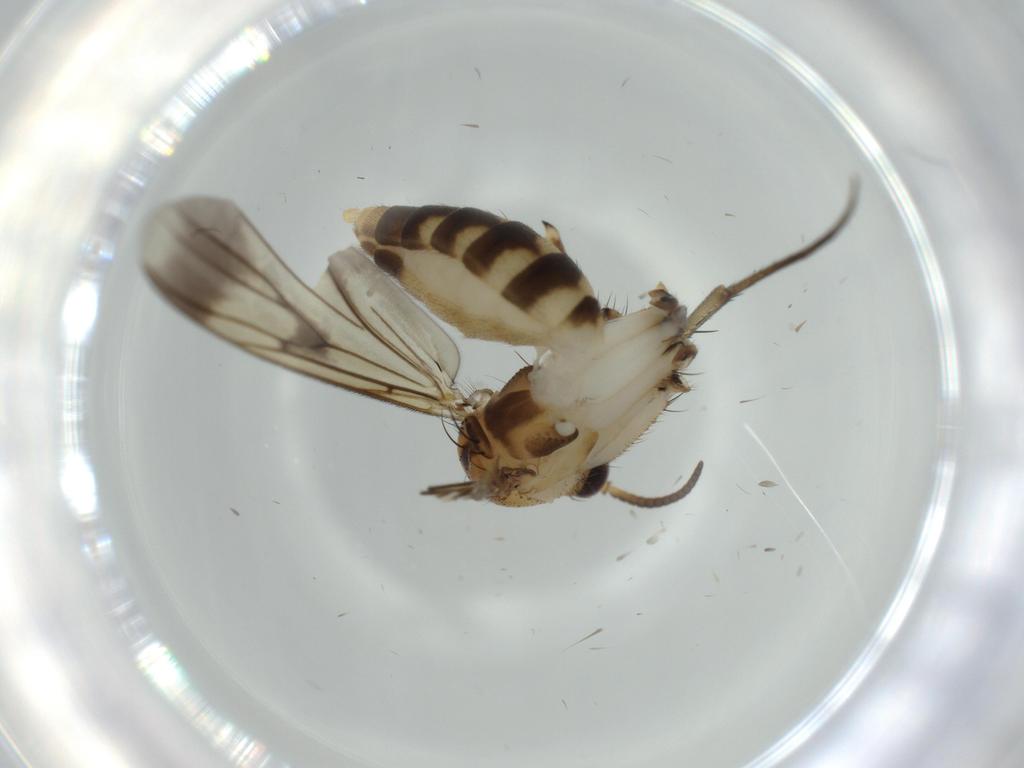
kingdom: Animalia
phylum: Arthropoda
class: Insecta
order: Diptera
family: Mycetophilidae
